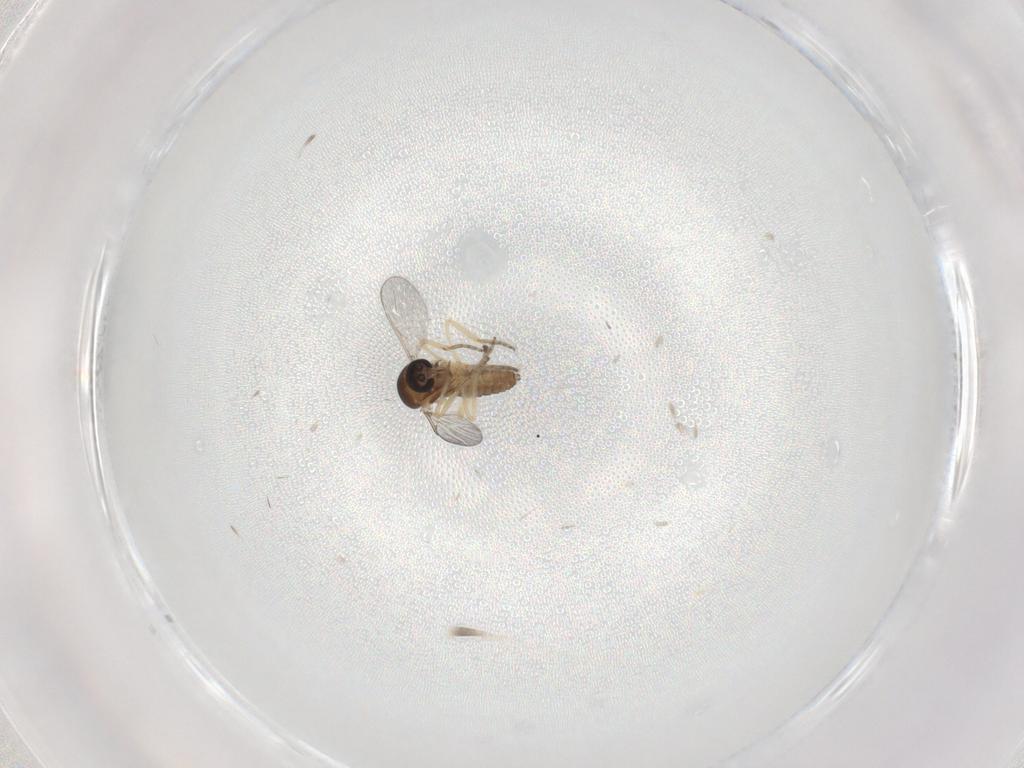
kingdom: Animalia
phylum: Arthropoda
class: Insecta
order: Diptera
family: Ceratopogonidae
